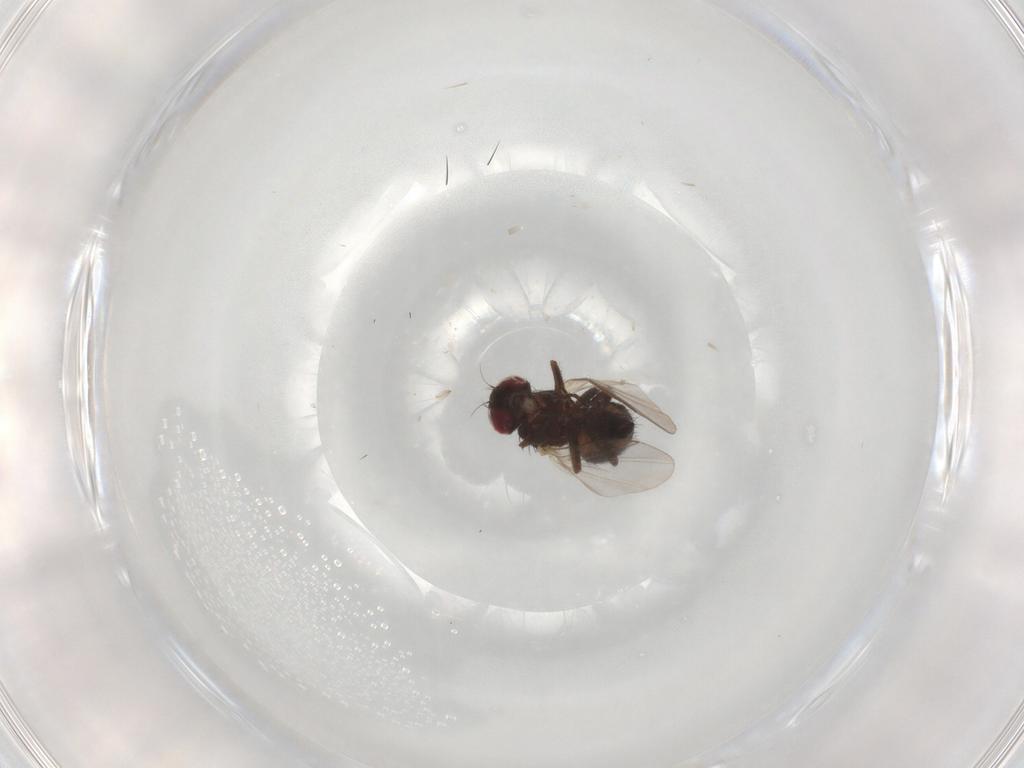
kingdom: Animalia
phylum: Arthropoda
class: Insecta
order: Diptera
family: Agromyzidae
